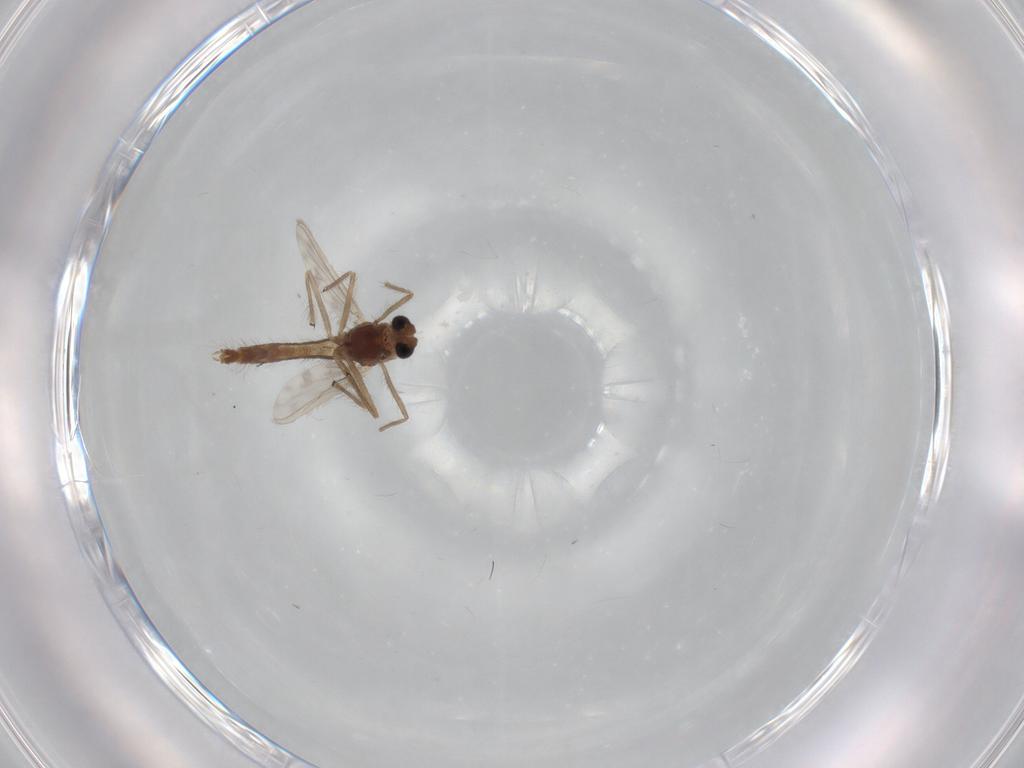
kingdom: Animalia
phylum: Arthropoda
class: Insecta
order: Diptera
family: Chironomidae
